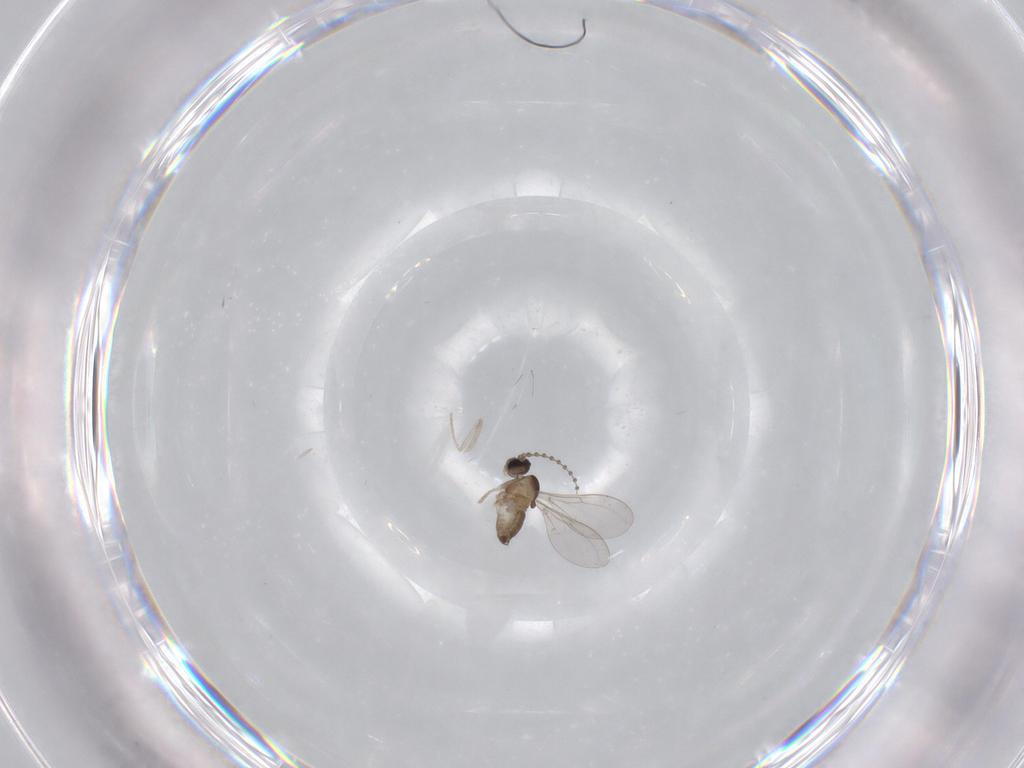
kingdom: Animalia
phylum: Arthropoda
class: Insecta
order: Diptera
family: Cecidomyiidae
